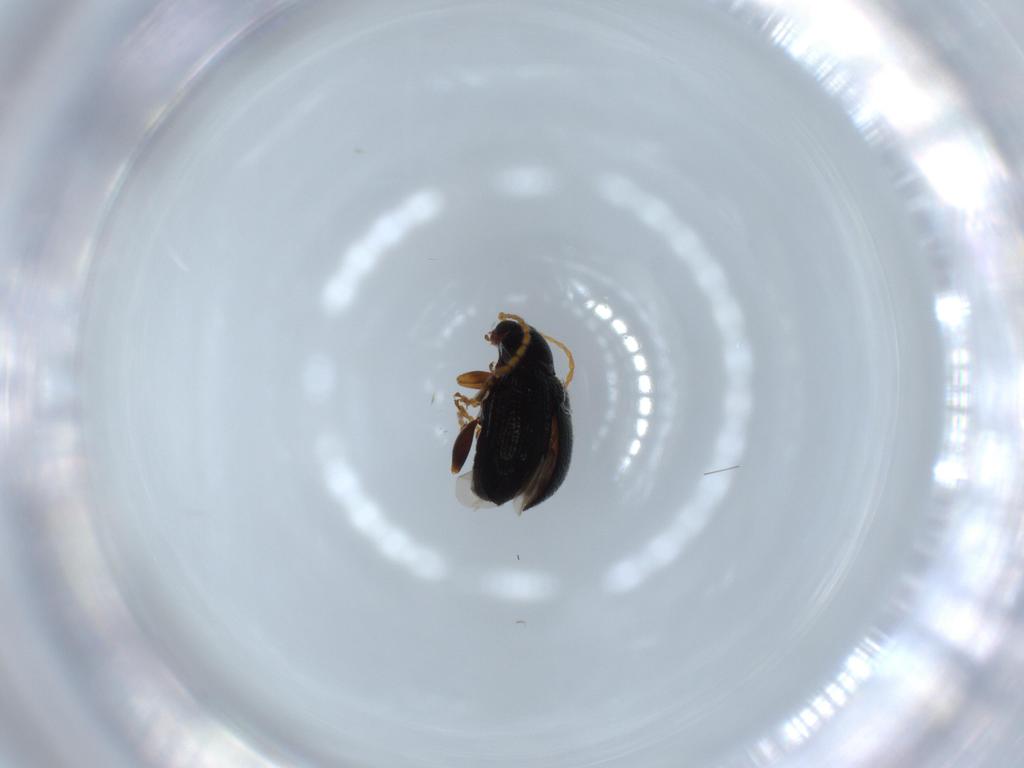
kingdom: Animalia
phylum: Arthropoda
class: Insecta
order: Coleoptera
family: Chrysomelidae
